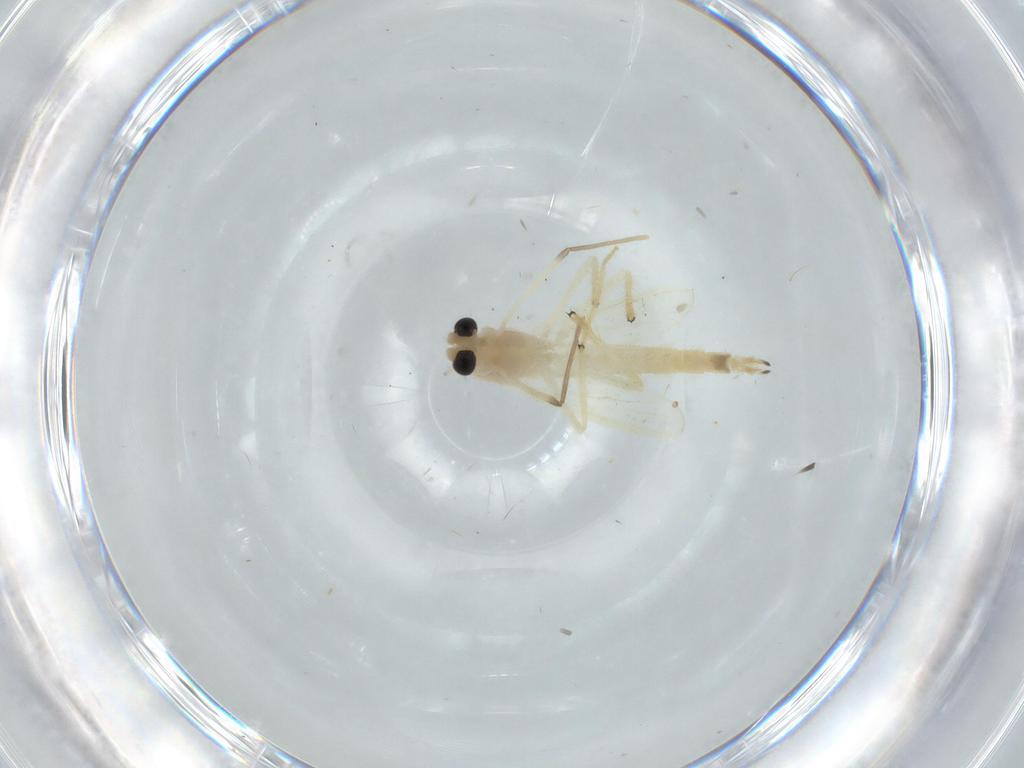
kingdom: Animalia
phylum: Arthropoda
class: Insecta
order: Diptera
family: Chironomidae
